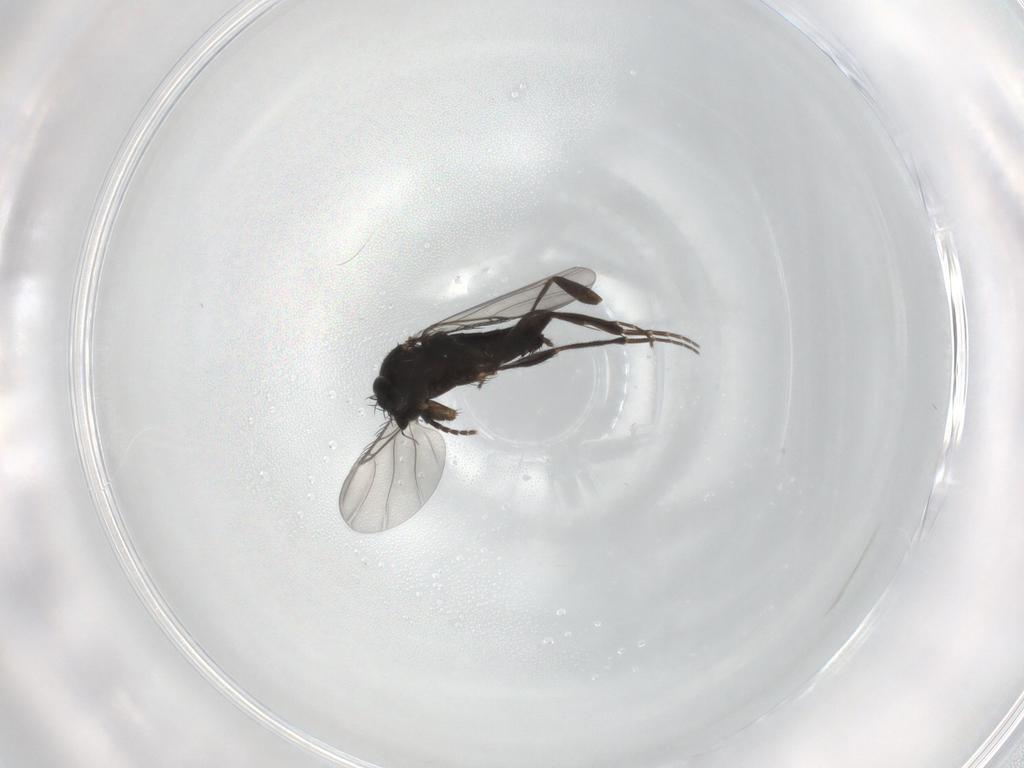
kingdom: Animalia
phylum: Arthropoda
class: Insecta
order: Diptera
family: Phoridae
